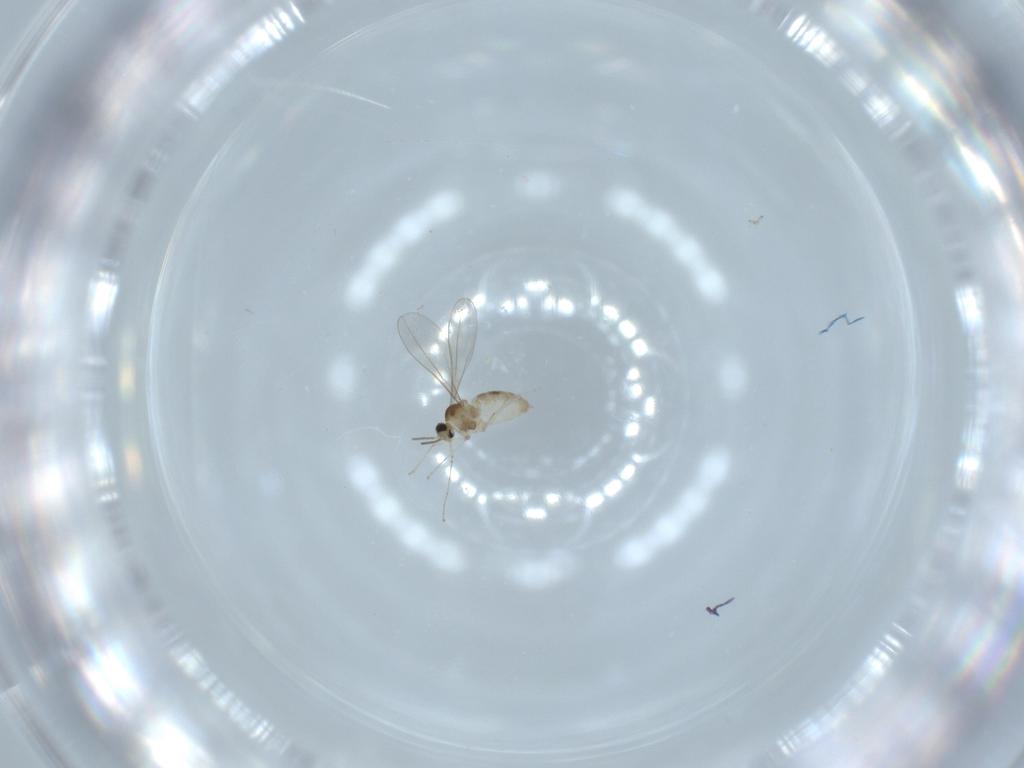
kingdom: Animalia
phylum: Arthropoda
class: Insecta
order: Diptera
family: Cecidomyiidae
